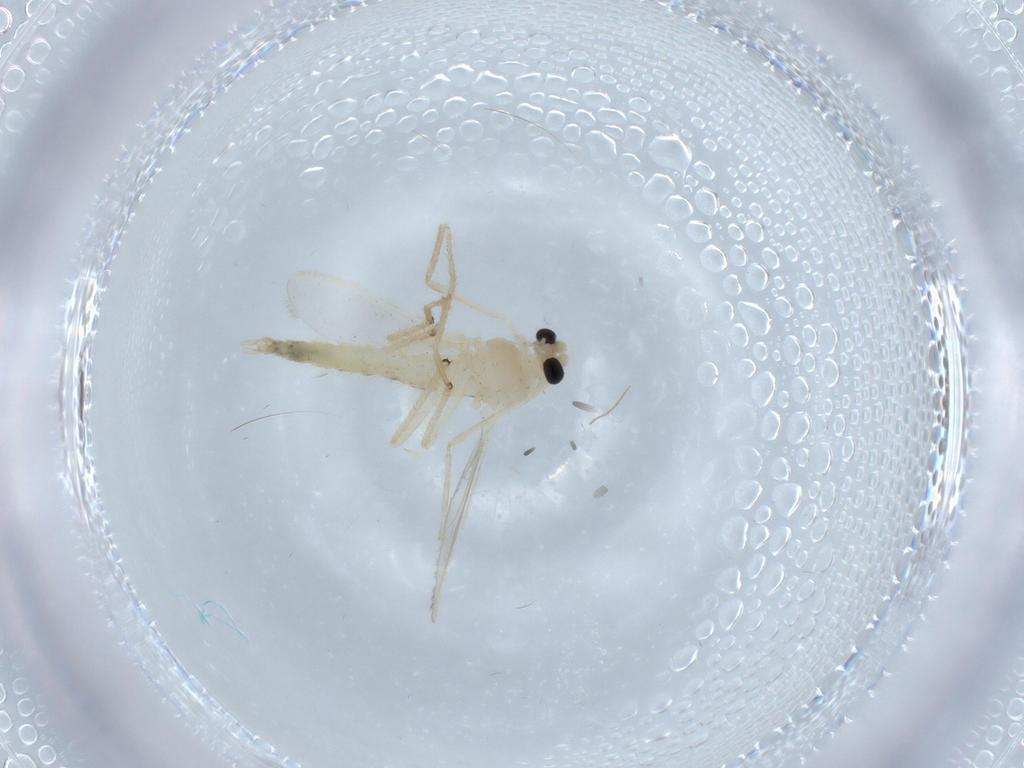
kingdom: Animalia
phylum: Arthropoda
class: Insecta
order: Diptera
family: Chironomidae
